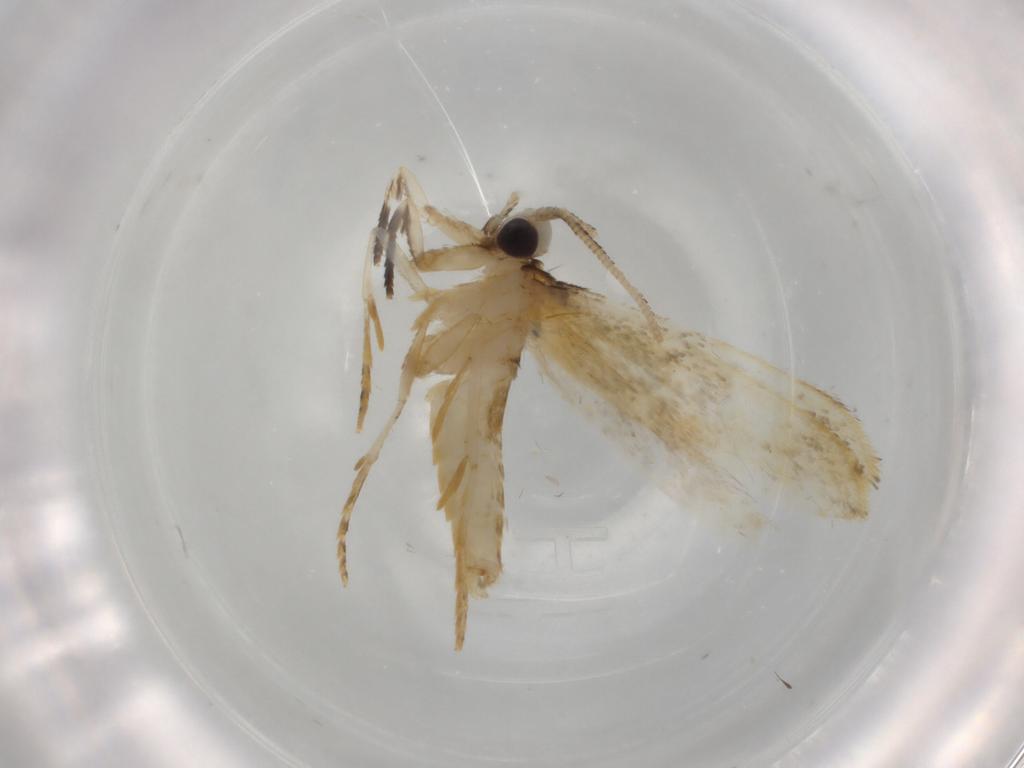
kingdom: Animalia
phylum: Arthropoda
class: Insecta
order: Lepidoptera
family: Tineidae
